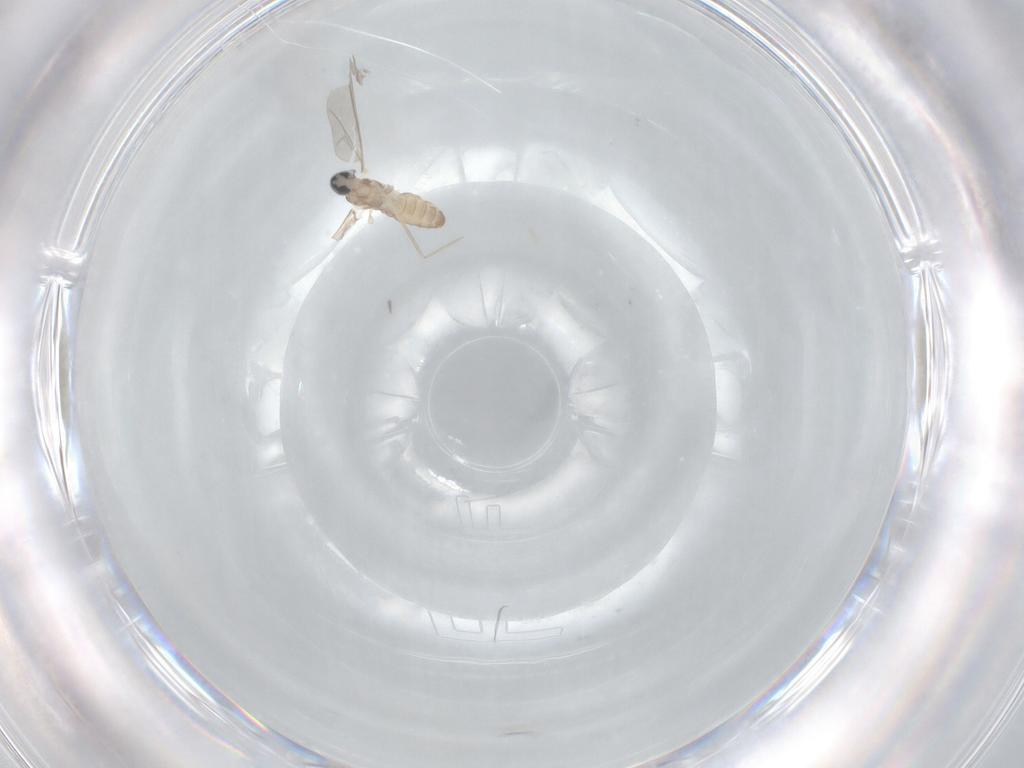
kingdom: Animalia
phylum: Arthropoda
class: Insecta
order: Diptera
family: Cecidomyiidae
